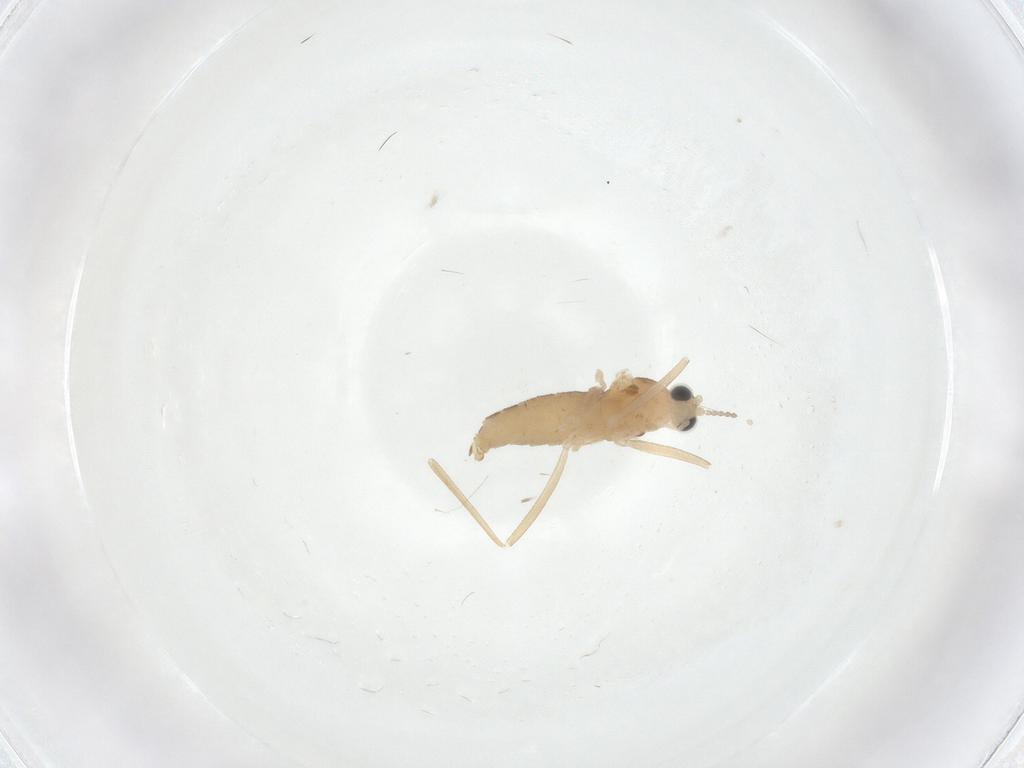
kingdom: Animalia
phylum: Arthropoda
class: Insecta
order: Diptera
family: Cecidomyiidae
